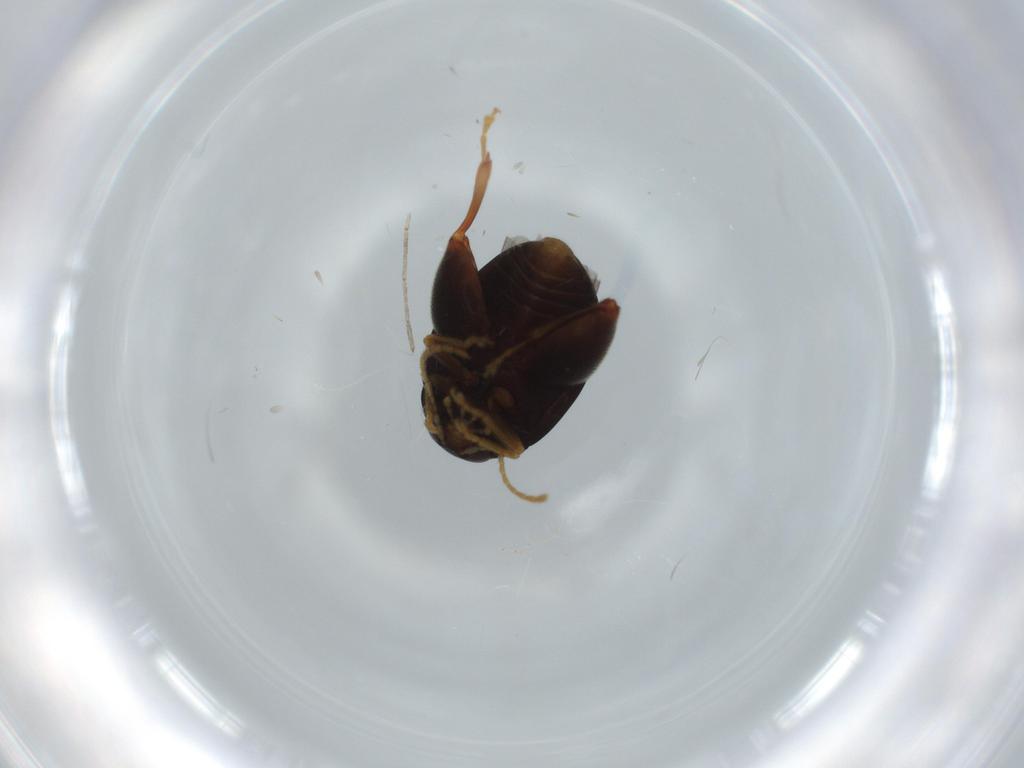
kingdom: Animalia
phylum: Arthropoda
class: Insecta
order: Coleoptera
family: Chrysomelidae
